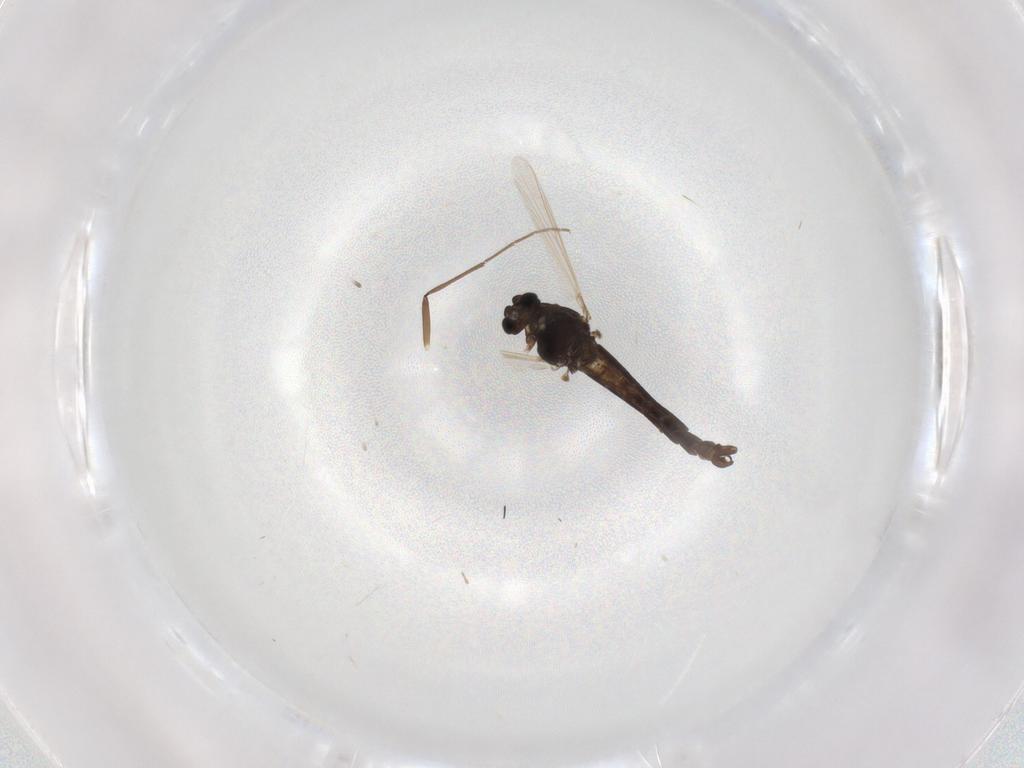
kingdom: Animalia
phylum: Arthropoda
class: Insecta
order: Diptera
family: Chironomidae
